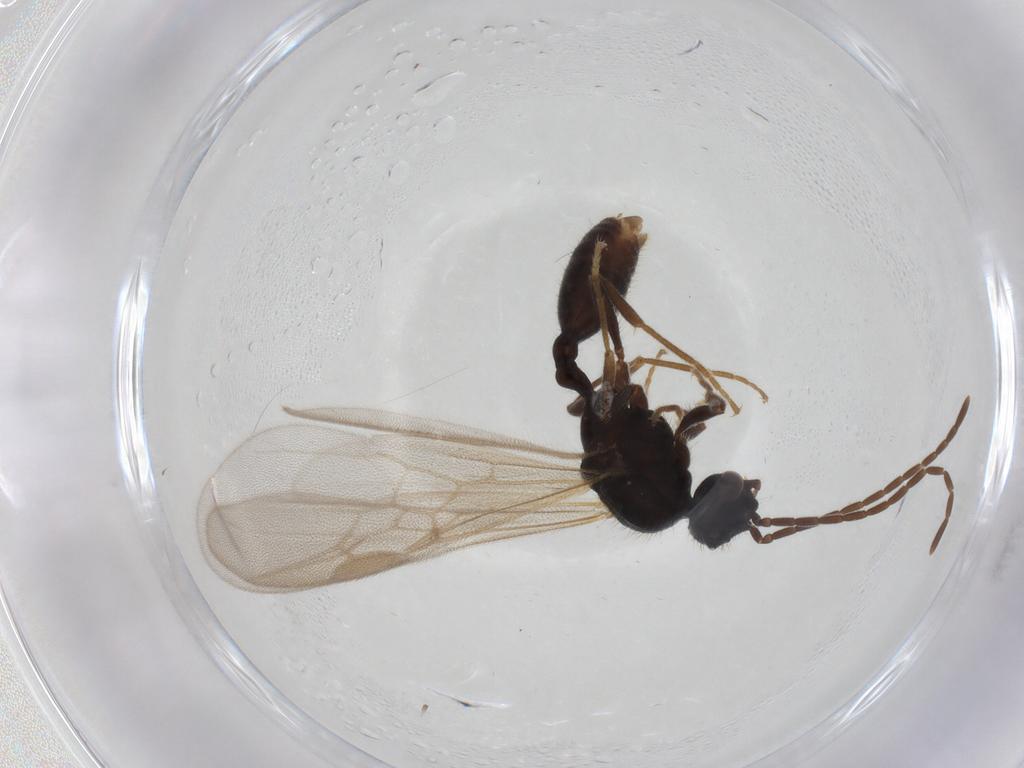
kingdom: Animalia
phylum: Arthropoda
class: Insecta
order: Hymenoptera
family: Formicidae
